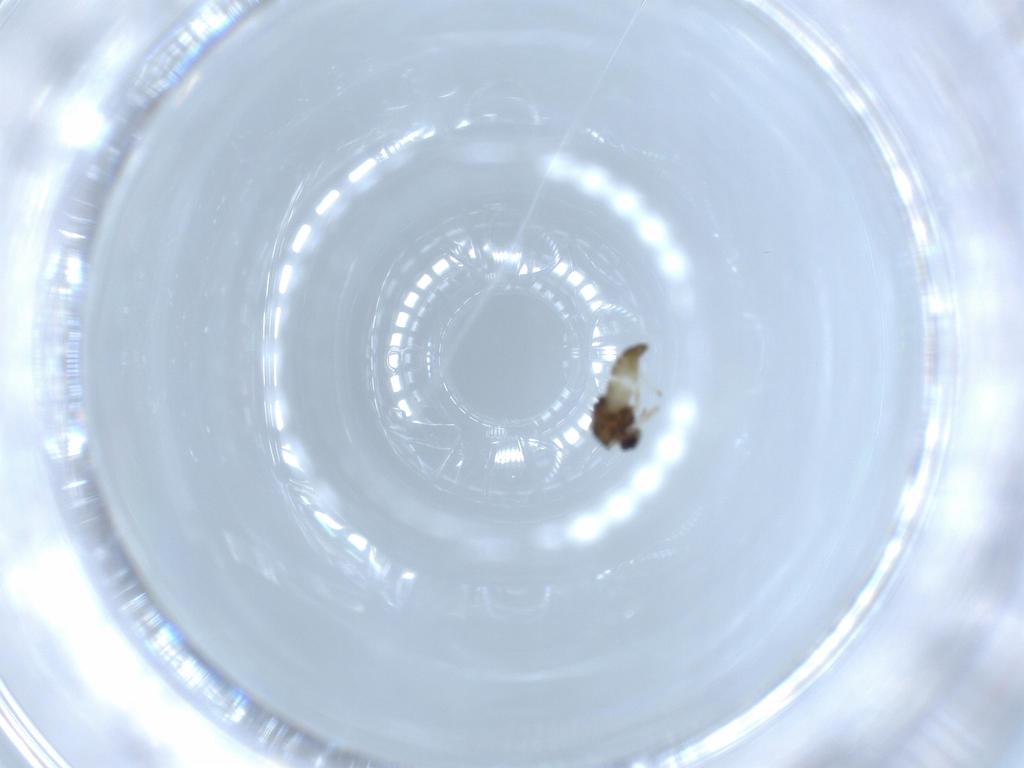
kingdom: Animalia
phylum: Arthropoda
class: Insecta
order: Diptera
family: Chironomidae
